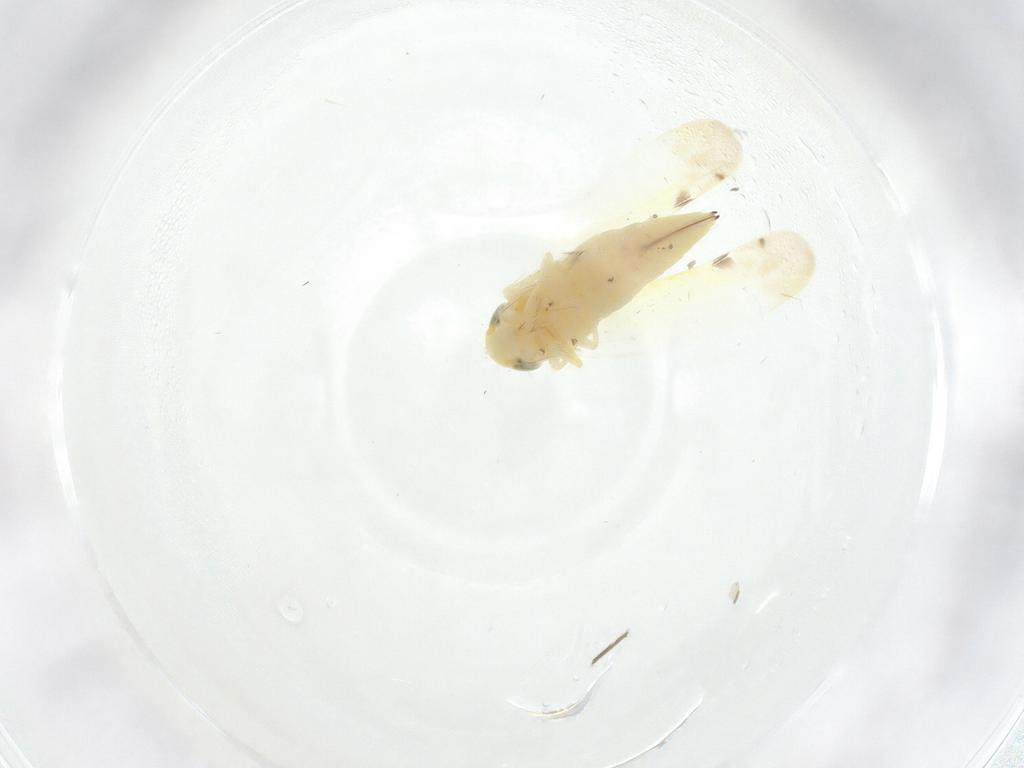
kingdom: Animalia
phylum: Arthropoda
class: Insecta
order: Hemiptera
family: Cicadellidae
